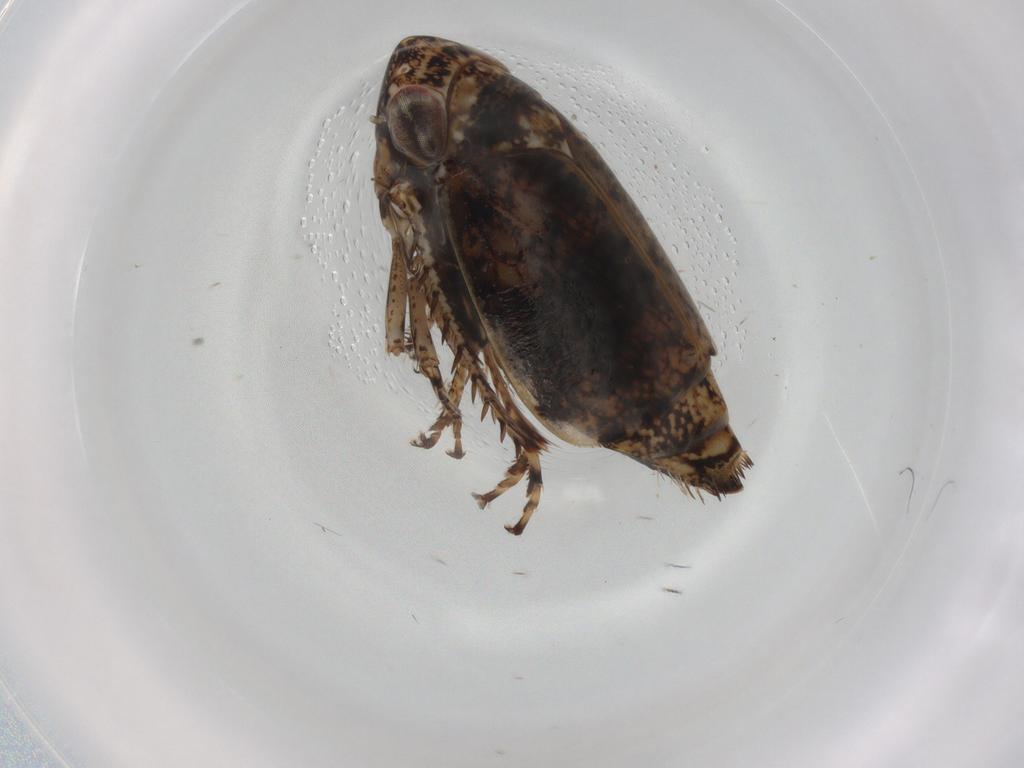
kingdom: Animalia
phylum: Arthropoda
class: Insecta
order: Hemiptera
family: Cicadellidae
